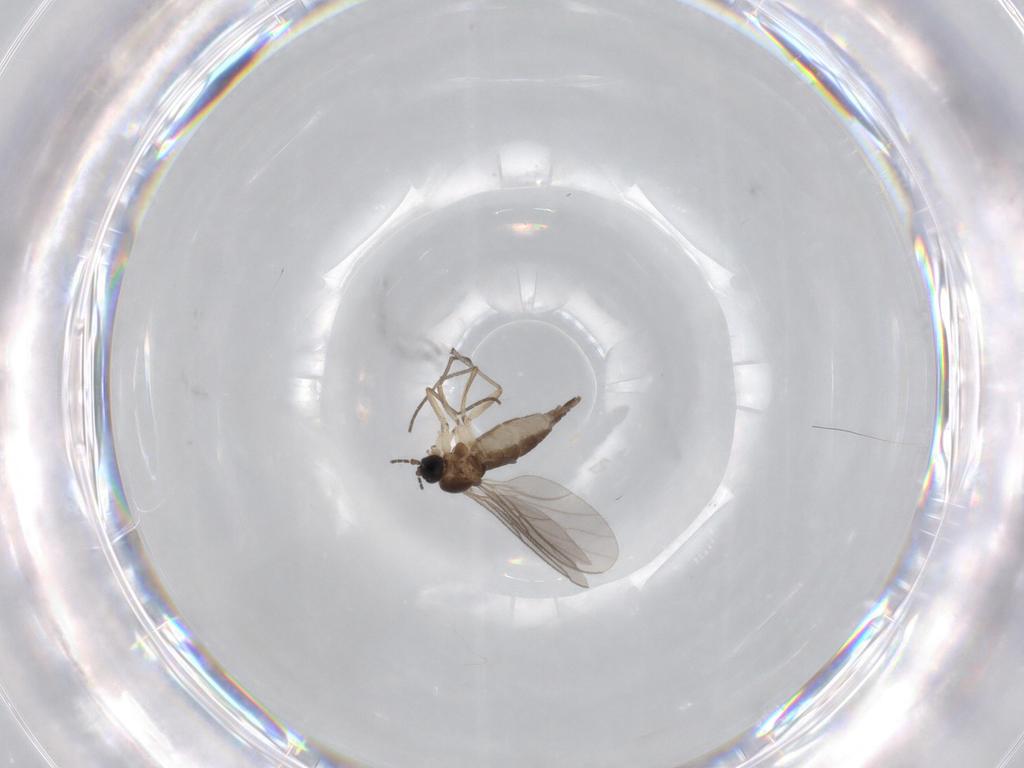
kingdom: Animalia
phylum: Arthropoda
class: Insecta
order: Diptera
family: Sciaridae
